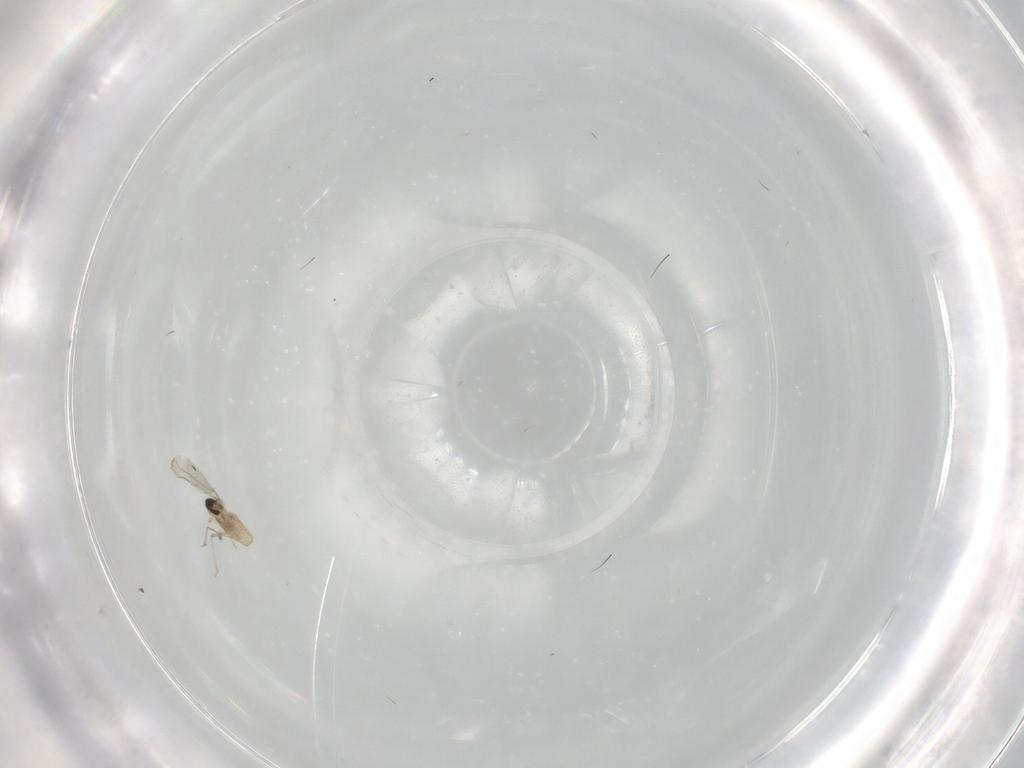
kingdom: Animalia
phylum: Arthropoda
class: Insecta
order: Diptera
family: Cecidomyiidae
